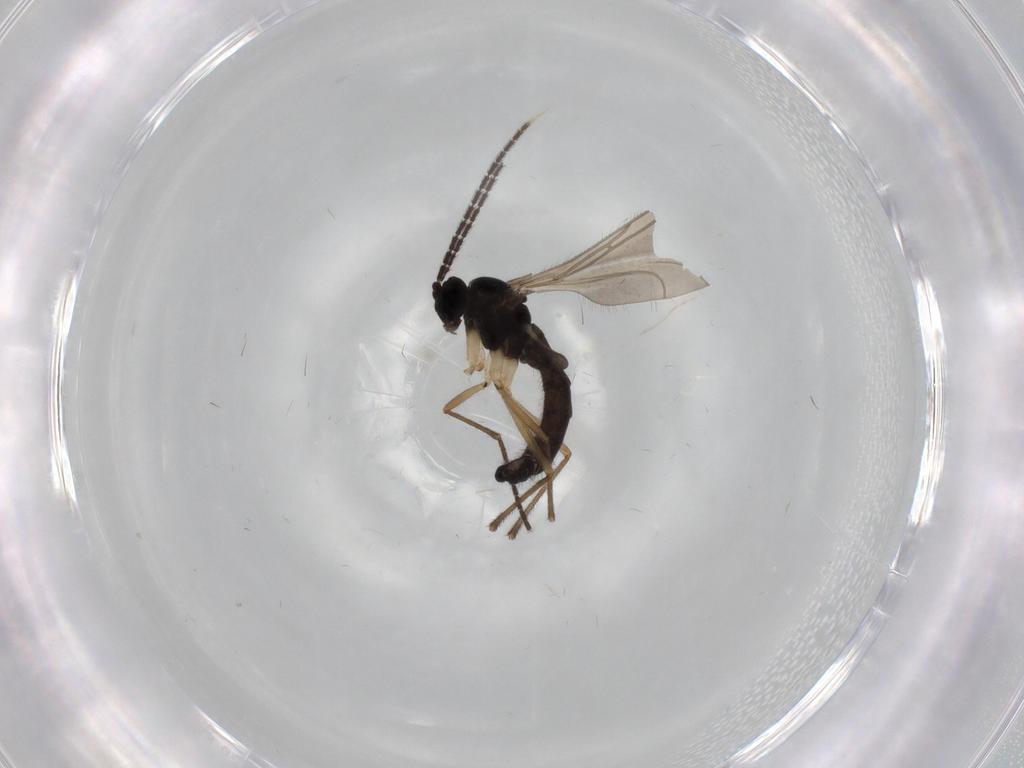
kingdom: Animalia
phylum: Arthropoda
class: Insecta
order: Diptera
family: Sciaridae
